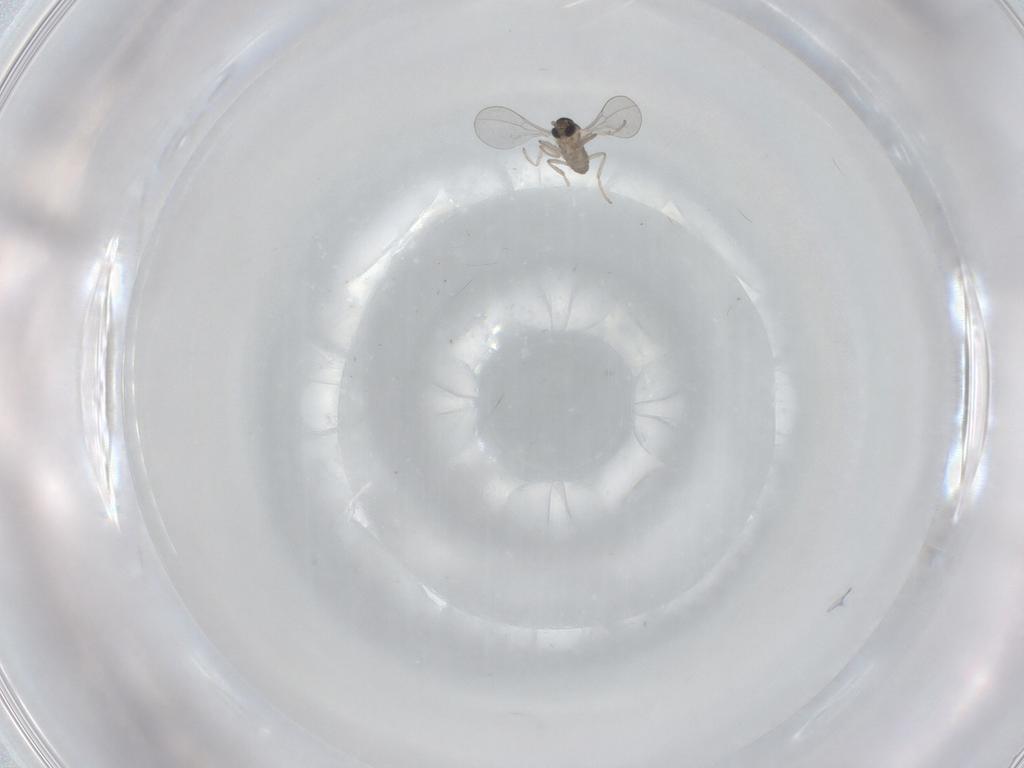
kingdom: Animalia
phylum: Arthropoda
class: Insecta
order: Diptera
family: Cecidomyiidae
